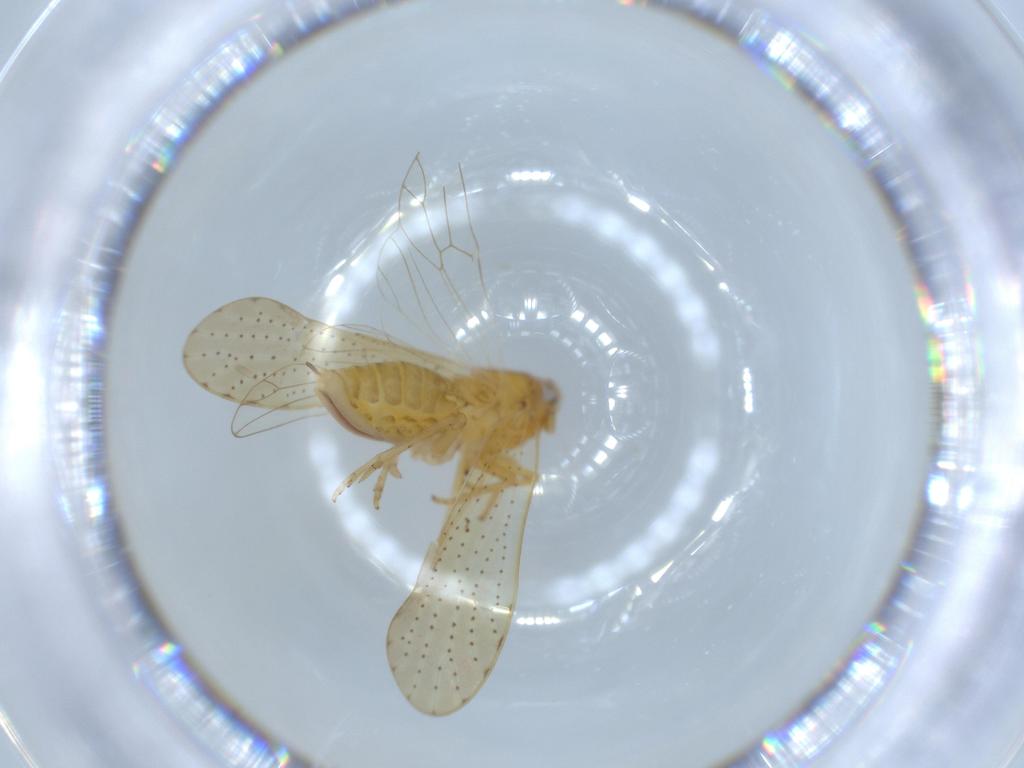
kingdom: Animalia
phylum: Arthropoda
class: Insecta
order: Hemiptera
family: Delphacidae
